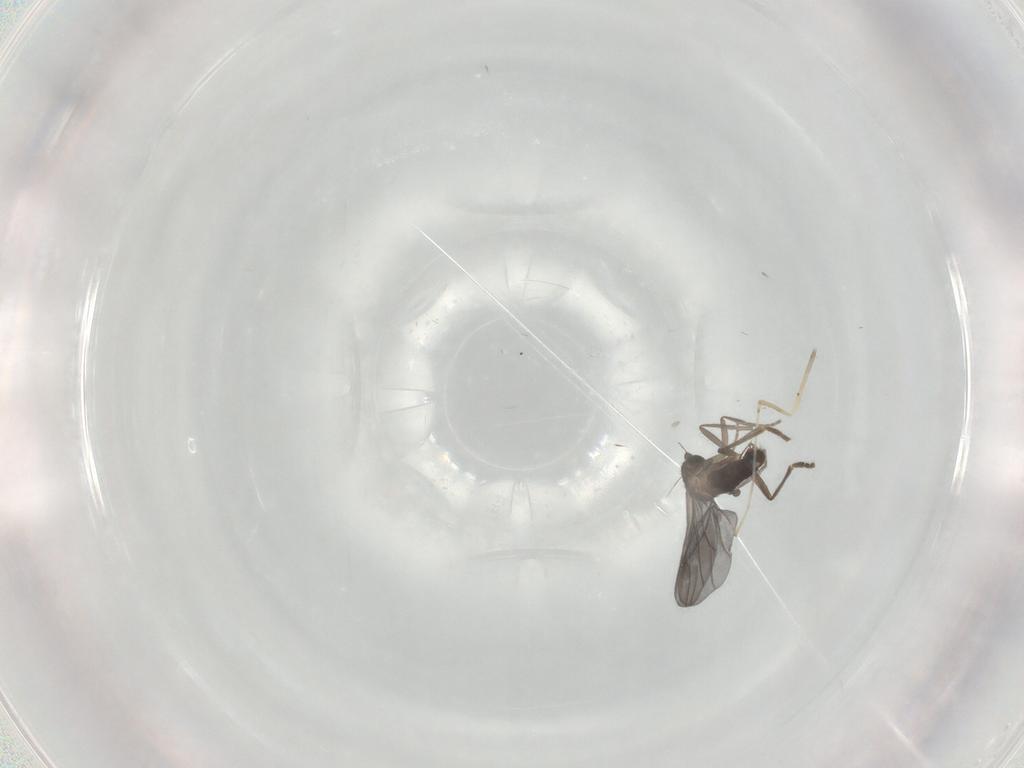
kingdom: Animalia
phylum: Arthropoda
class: Insecta
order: Diptera
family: Phoridae
